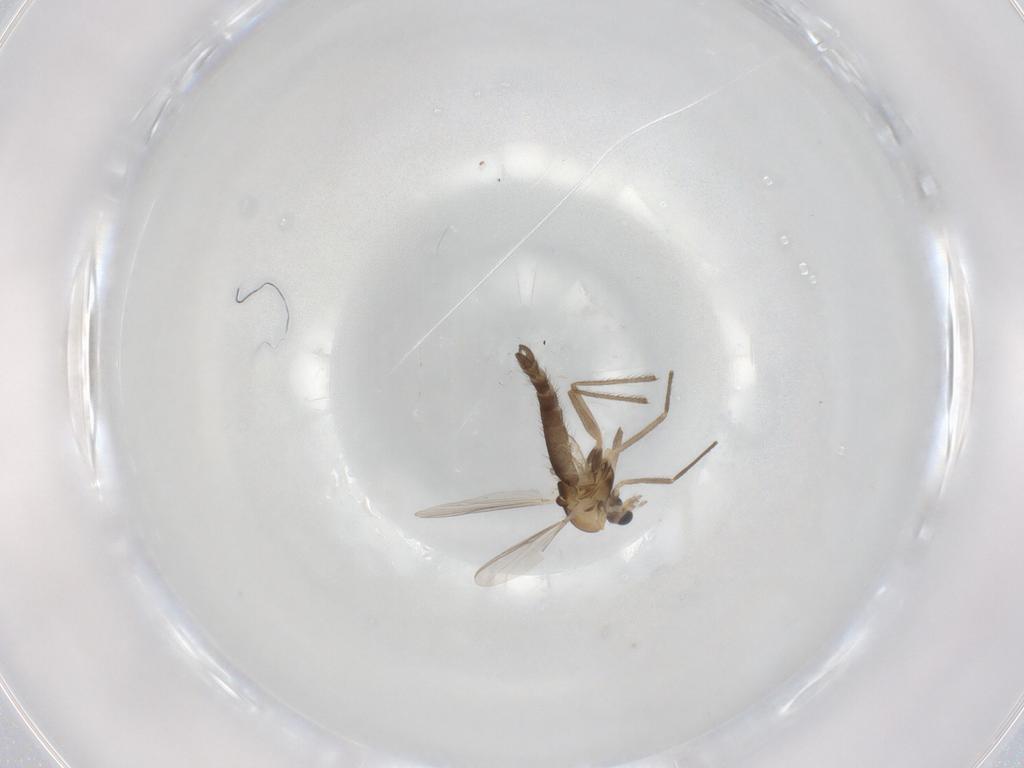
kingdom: Animalia
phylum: Arthropoda
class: Insecta
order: Diptera
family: Chironomidae
